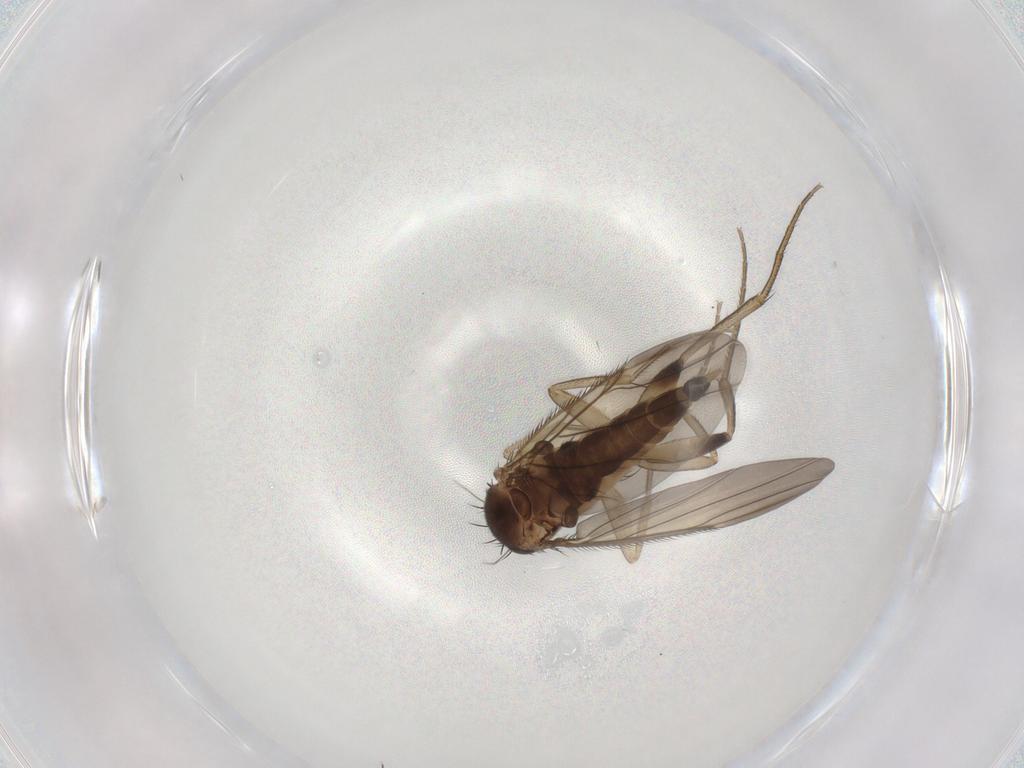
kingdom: Animalia
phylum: Arthropoda
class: Insecta
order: Diptera
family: Phoridae
